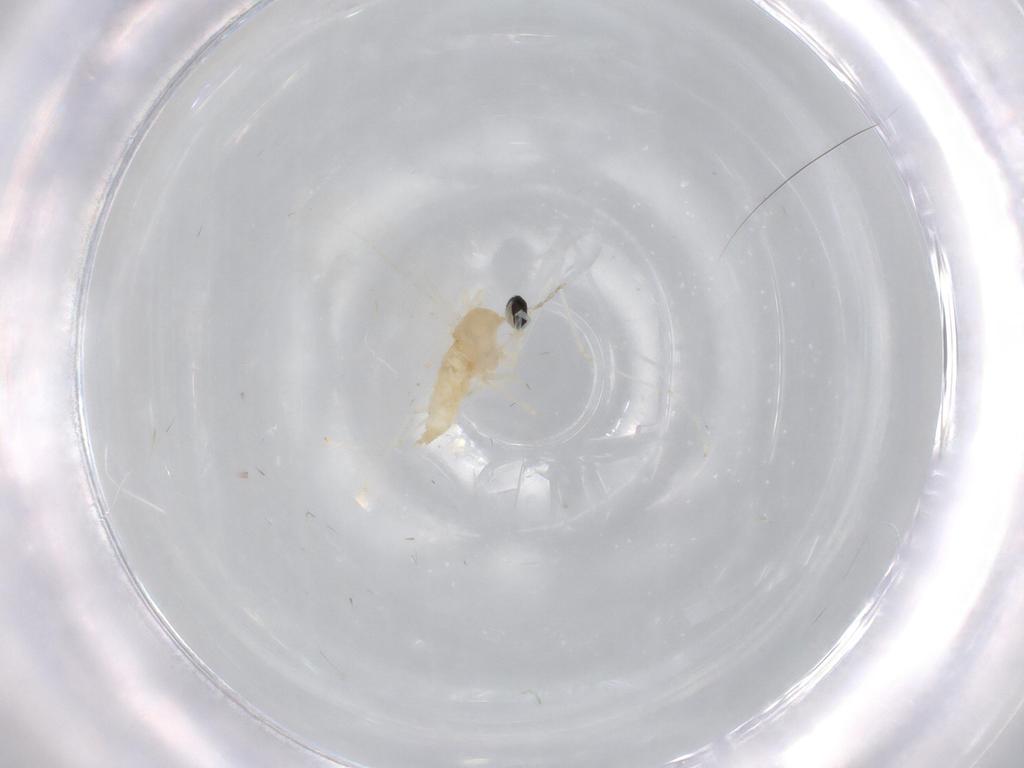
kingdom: Animalia
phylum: Arthropoda
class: Insecta
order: Diptera
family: Cecidomyiidae
